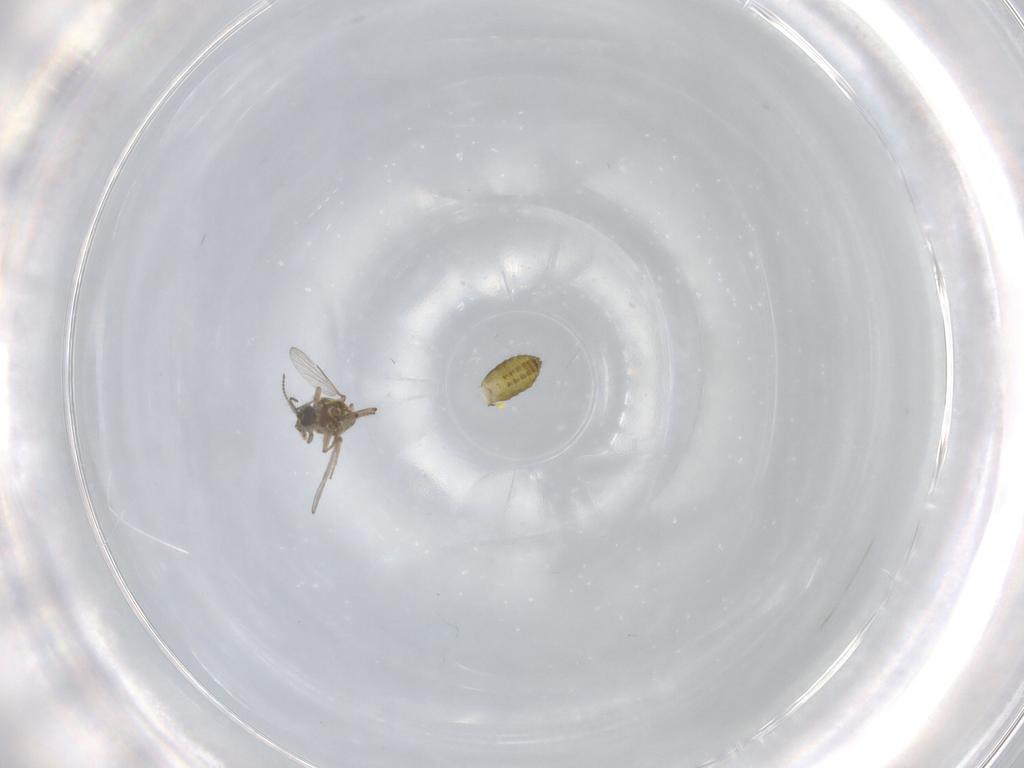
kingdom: Animalia
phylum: Arthropoda
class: Insecta
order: Diptera
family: Ceratopogonidae
